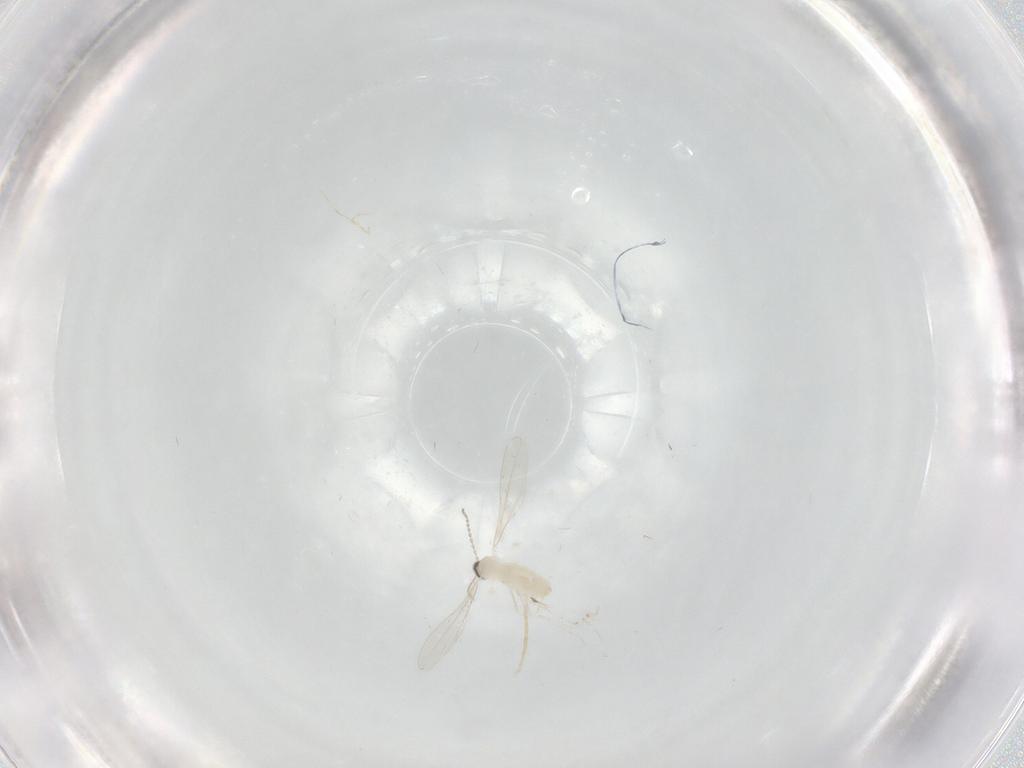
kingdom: Animalia
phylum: Arthropoda
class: Insecta
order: Diptera
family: Cecidomyiidae
